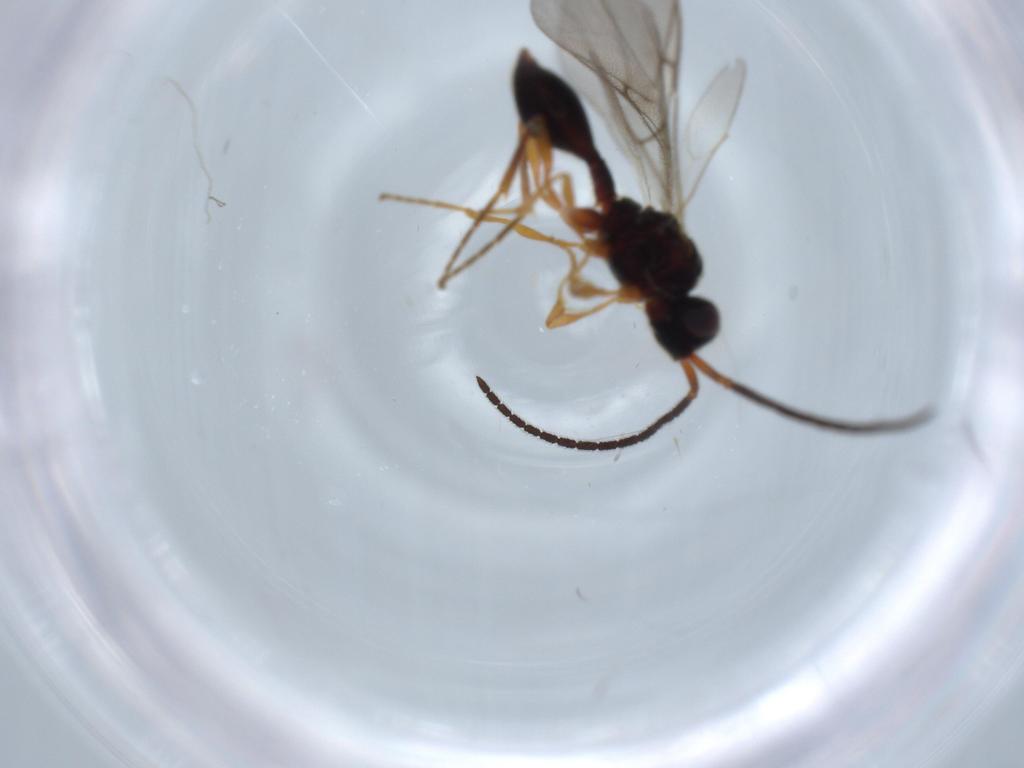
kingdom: Animalia
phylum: Arthropoda
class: Insecta
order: Hymenoptera
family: Diapriidae
